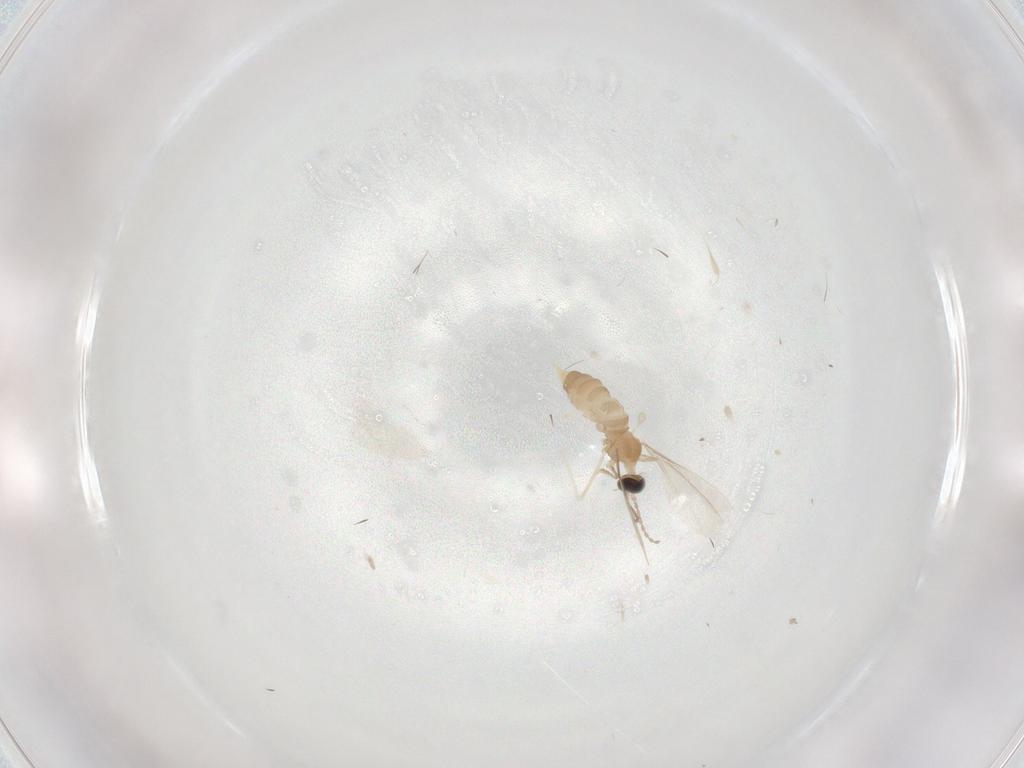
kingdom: Animalia
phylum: Arthropoda
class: Insecta
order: Diptera
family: Cecidomyiidae
